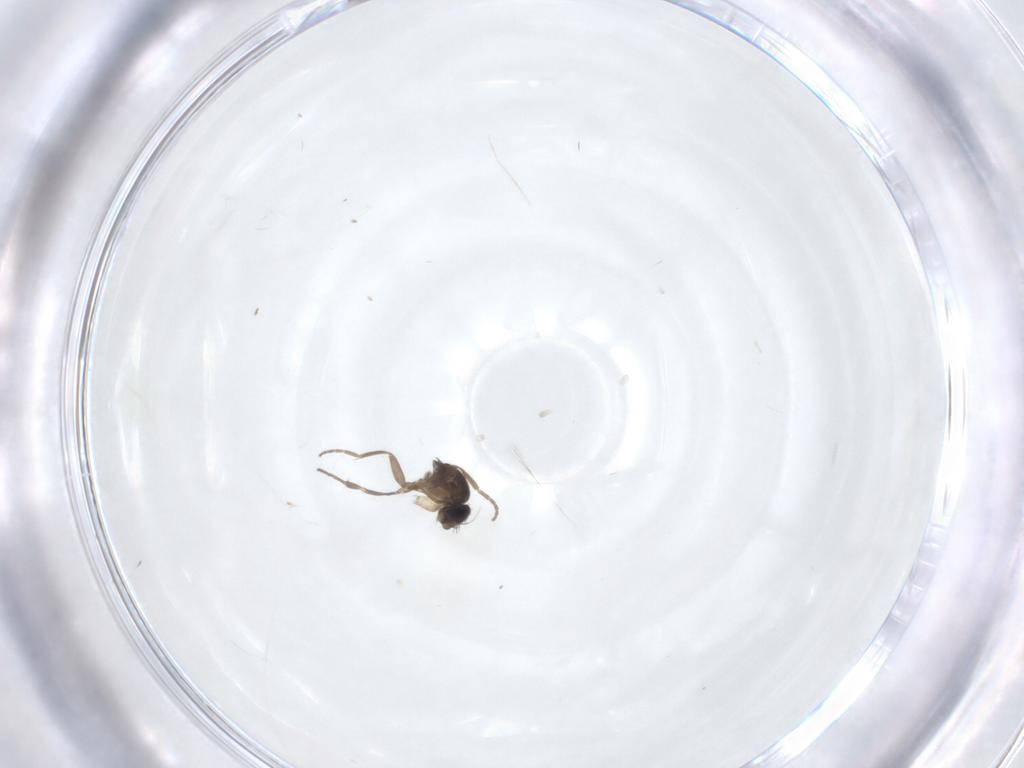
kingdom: Animalia
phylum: Arthropoda
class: Insecta
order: Diptera
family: Phoridae
